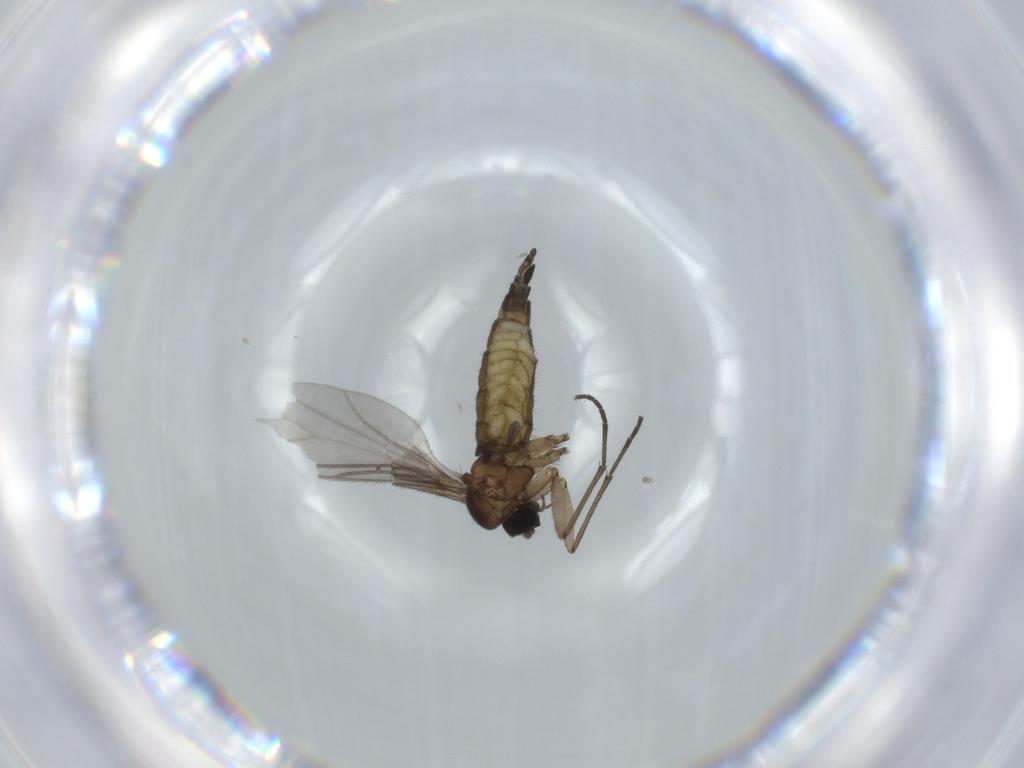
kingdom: Animalia
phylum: Arthropoda
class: Insecta
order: Diptera
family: Sciaridae
